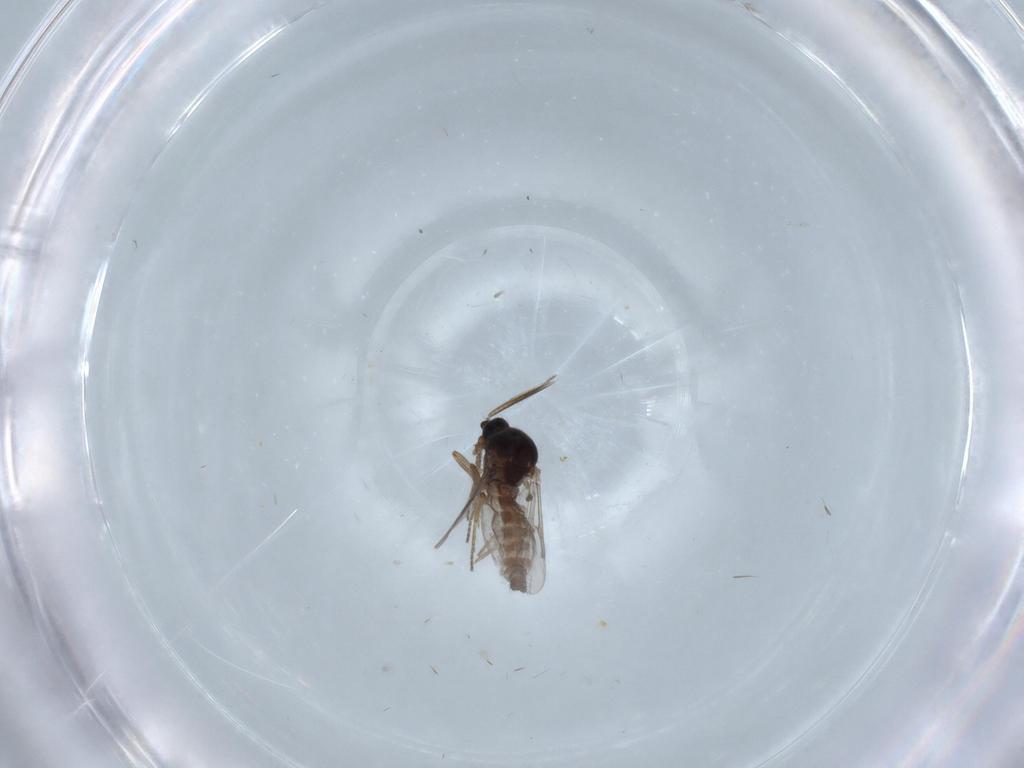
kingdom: Animalia
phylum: Arthropoda
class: Insecta
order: Diptera
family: Ceratopogonidae
